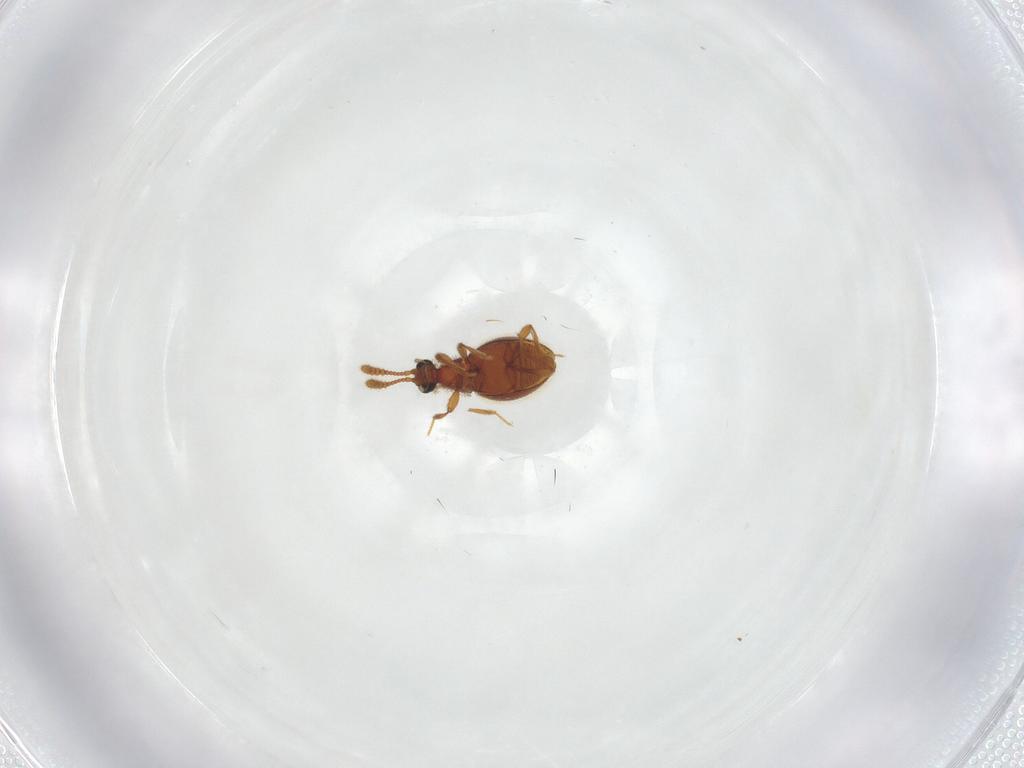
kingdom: Animalia
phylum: Arthropoda
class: Insecta
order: Coleoptera
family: Staphylinidae
